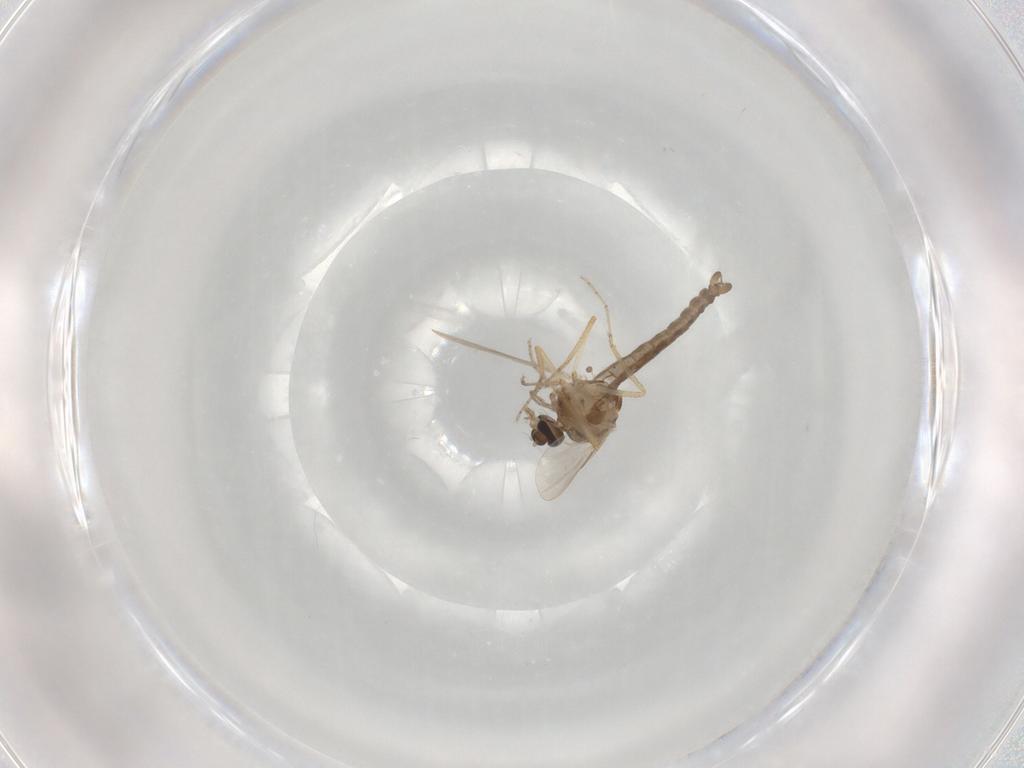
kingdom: Animalia
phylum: Arthropoda
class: Insecta
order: Diptera
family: Ceratopogonidae
